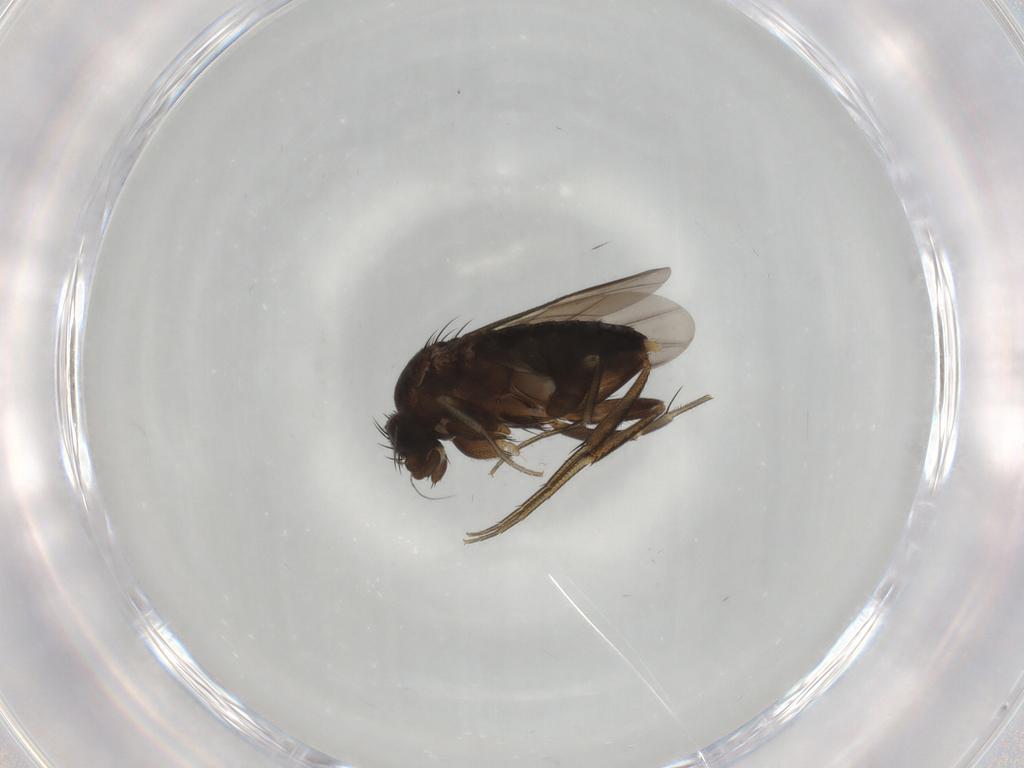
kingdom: Animalia
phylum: Arthropoda
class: Insecta
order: Diptera
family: Phoridae
